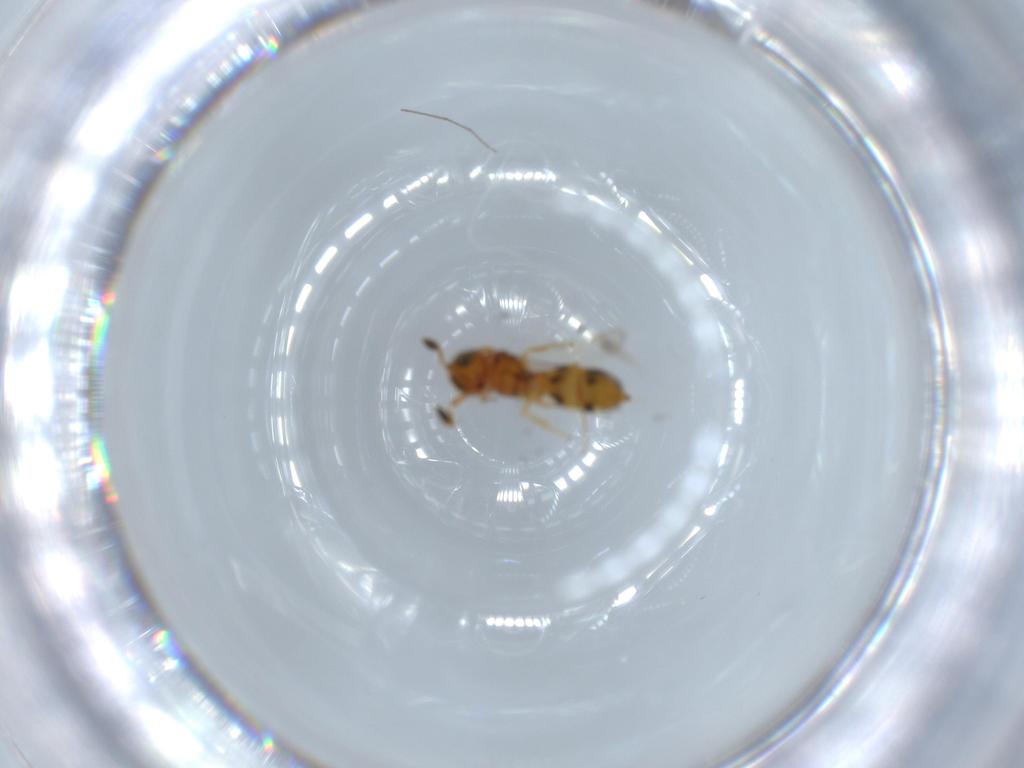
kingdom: Animalia
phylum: Arthropoda
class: Insecta
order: Hymenoptera
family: Scelionidae
